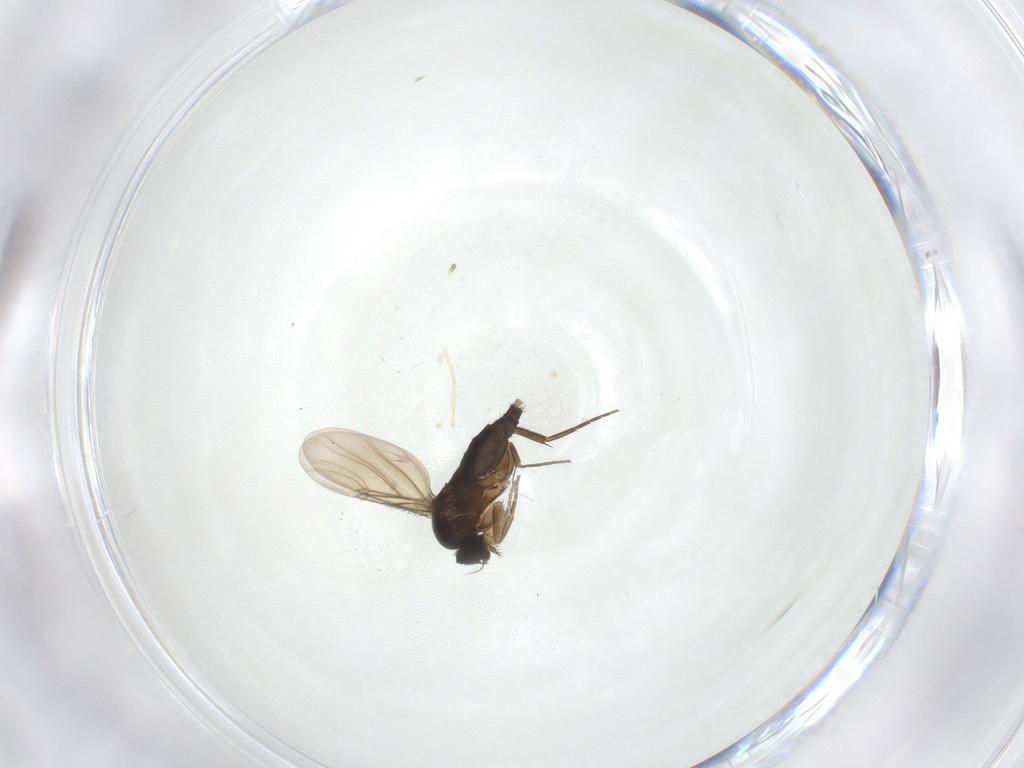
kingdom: Animalia
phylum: Arthropoda
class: Insecta
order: Diptera
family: Phoridae
